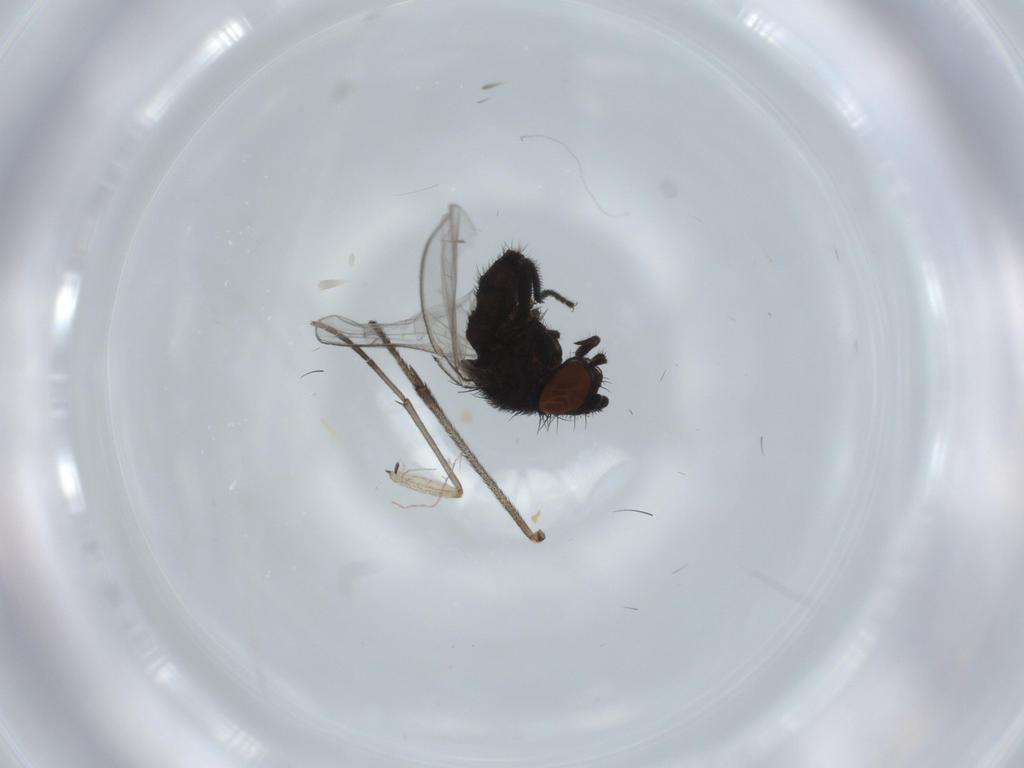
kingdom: Animalia
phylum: Arthropoda
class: Insecta
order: Diptera
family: Milichiidae
